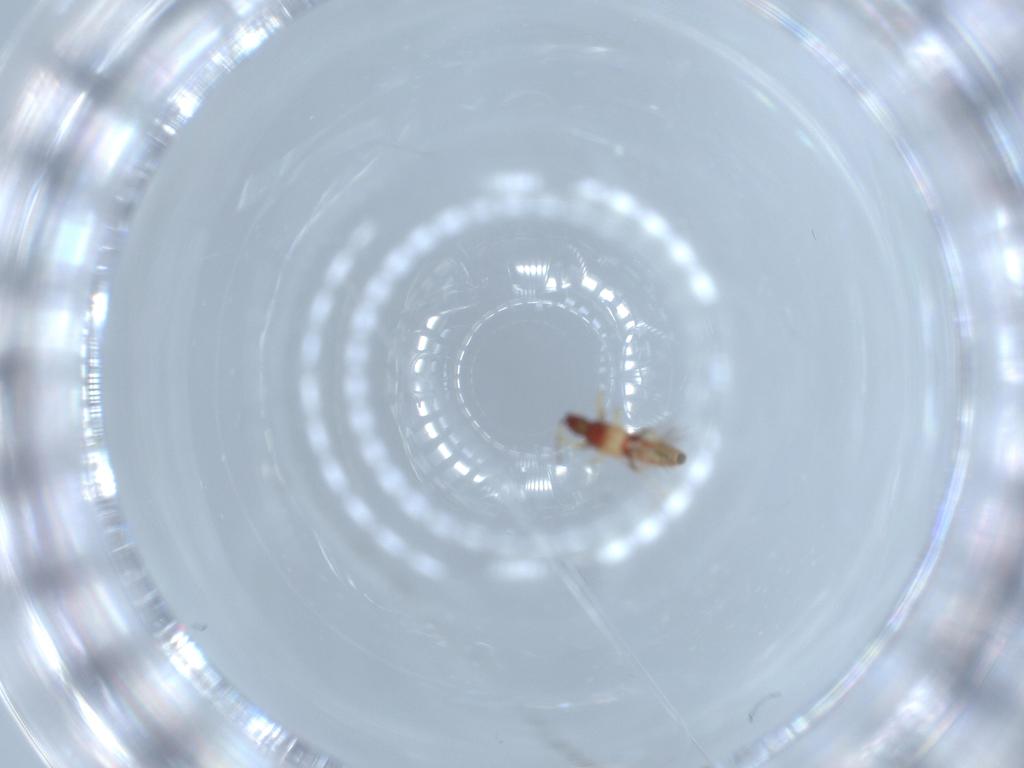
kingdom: Animalia
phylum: Arthropoda
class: Insecta
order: Thysanoptera
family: Phlaeothripidae
